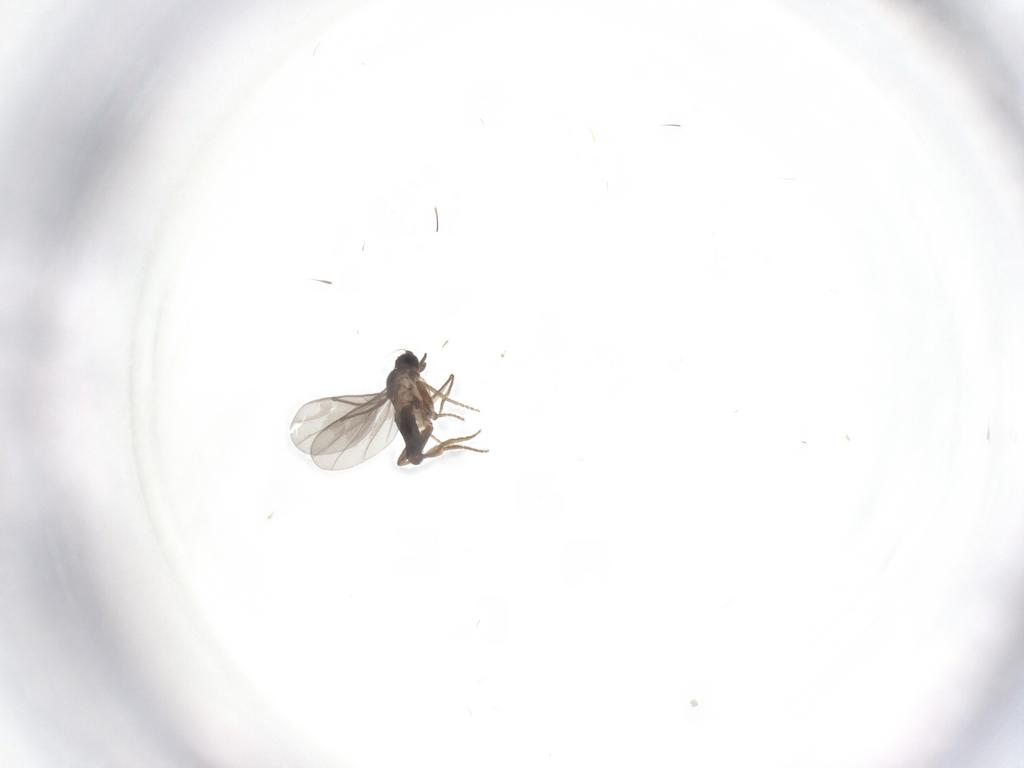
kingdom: Animalia
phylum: Arthropoda
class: Insecta
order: Diptera
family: Cecidomyiidae
